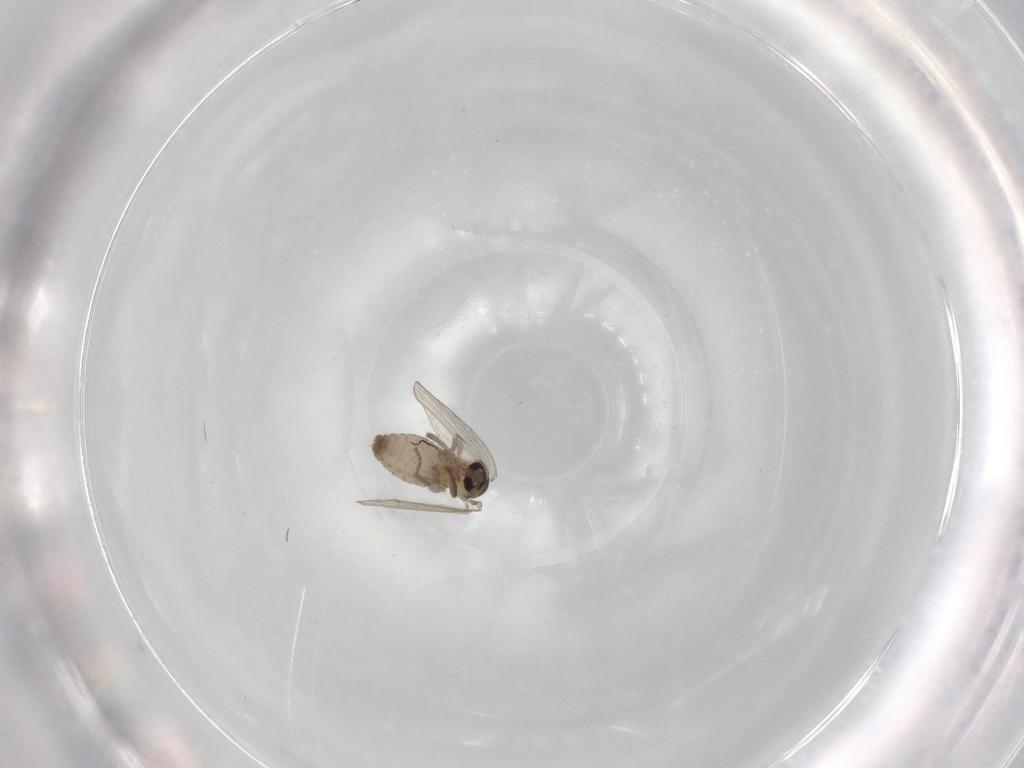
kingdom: Animalia
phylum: Arthropoda
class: Insecta
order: Diptera
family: Psychodidae
